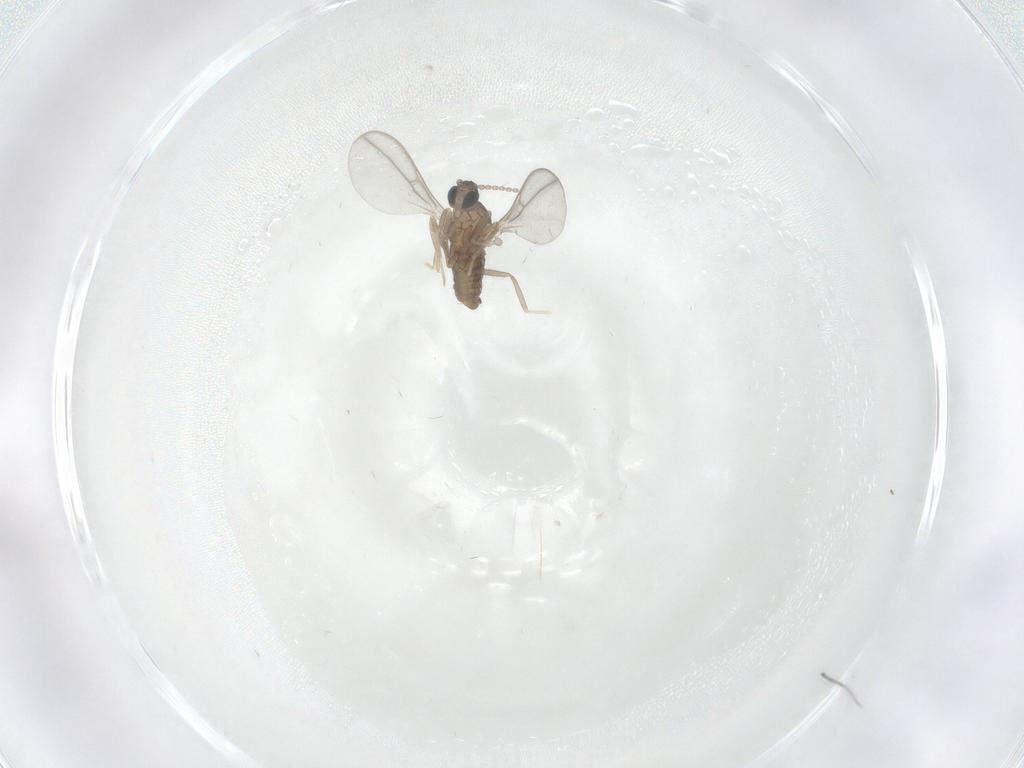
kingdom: Animalia
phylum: Arthropoda
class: Insecta
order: Diptera
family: Cecidomyiidae
